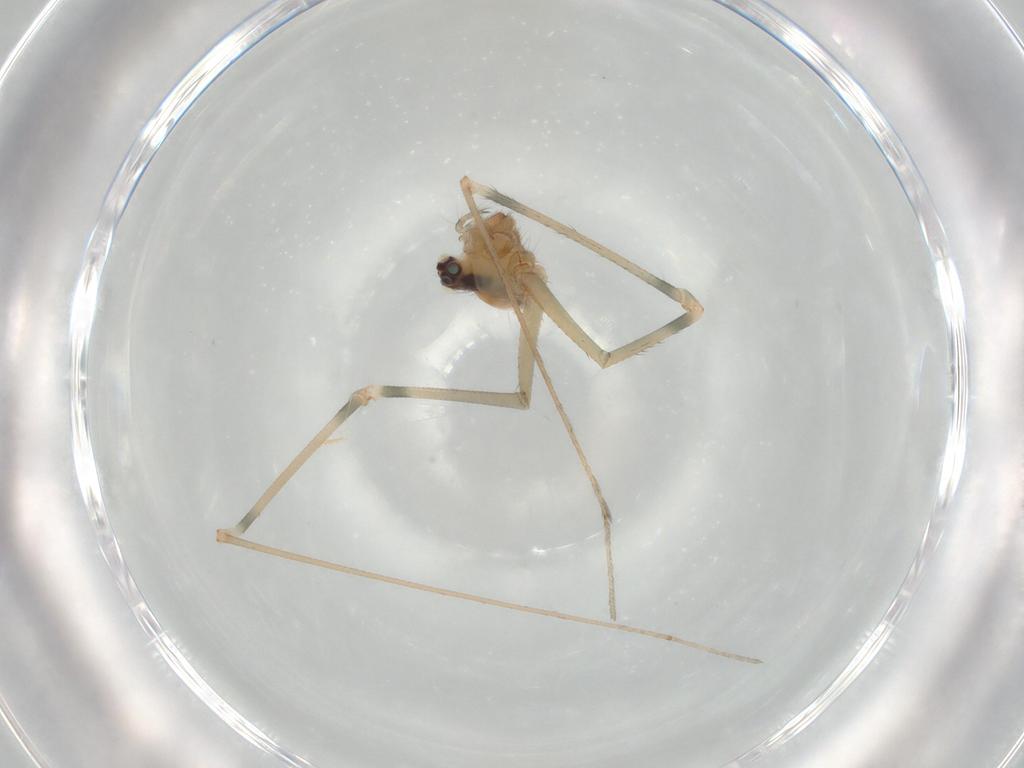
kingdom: Animalia
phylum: Arthropoda
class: Arachnida
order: Araneae
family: Pholcidae
